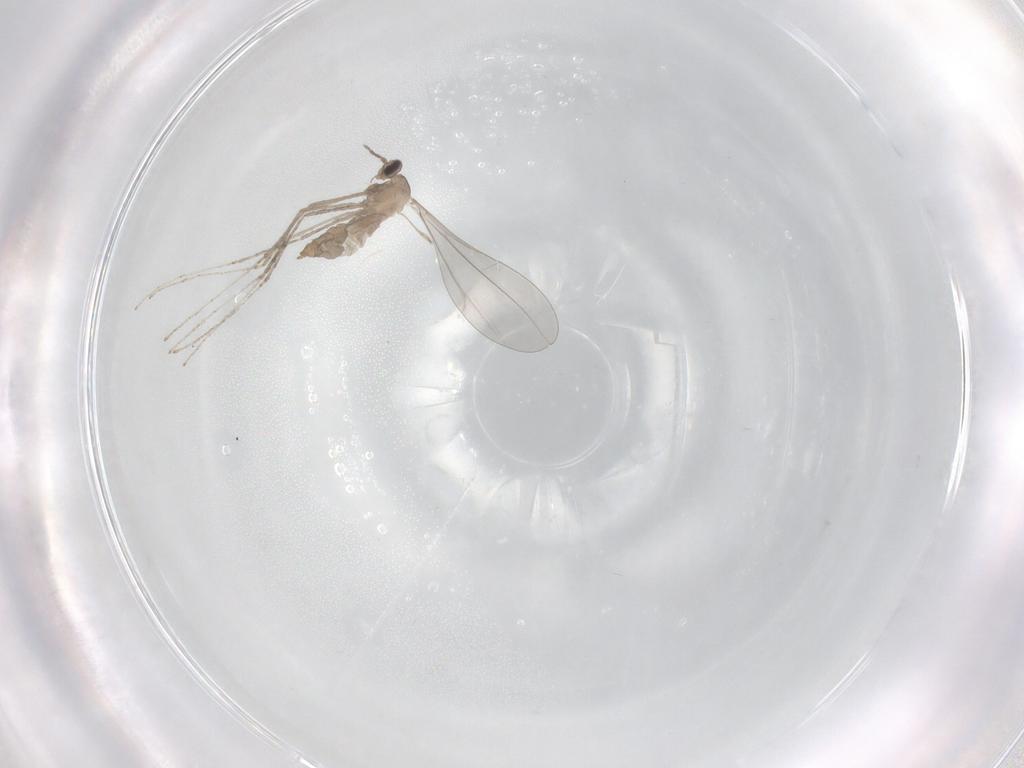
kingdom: Animalia
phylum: Arthropoda
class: Insecta
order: Diptera
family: Cecidomyiidae
